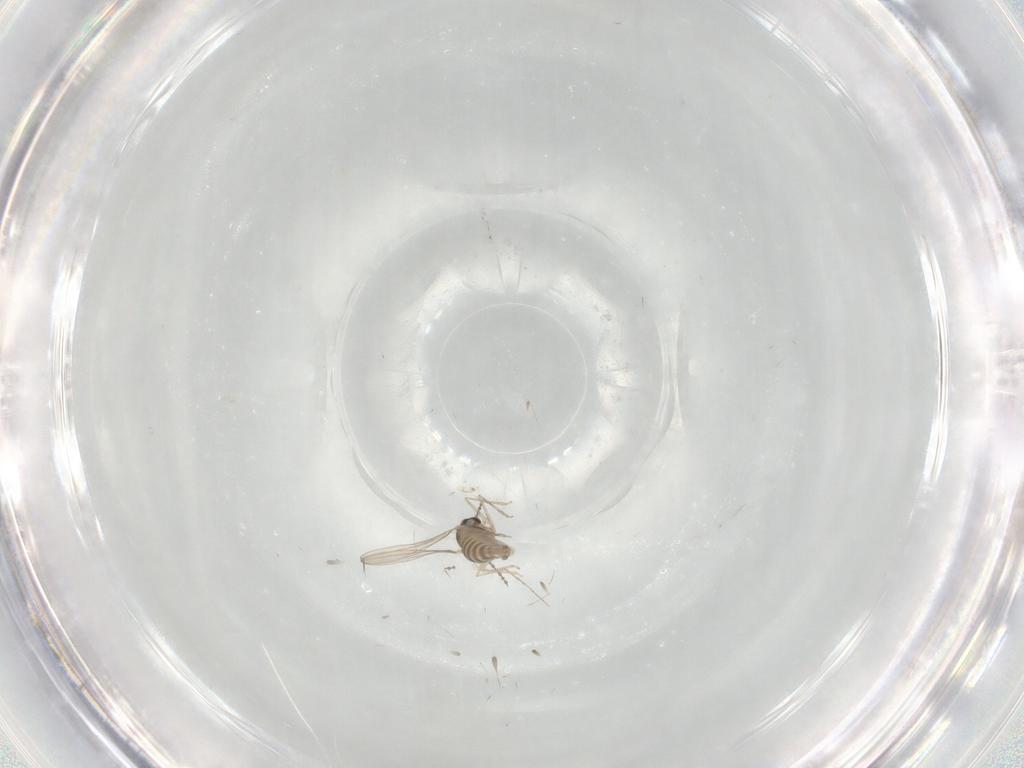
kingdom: Animalia
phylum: Arthropoda
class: Insecta
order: Diptera
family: Cecidomyiidae
